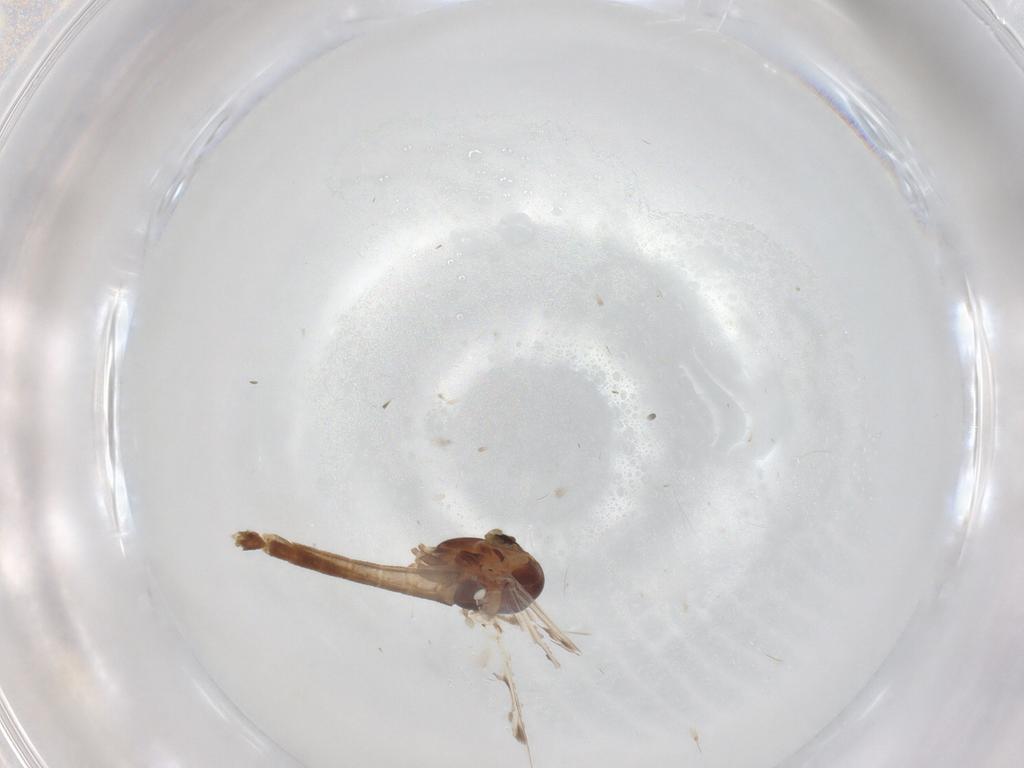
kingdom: Animalia
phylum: Arthropoda
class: Insecta
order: Diptera
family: Chironomidae
